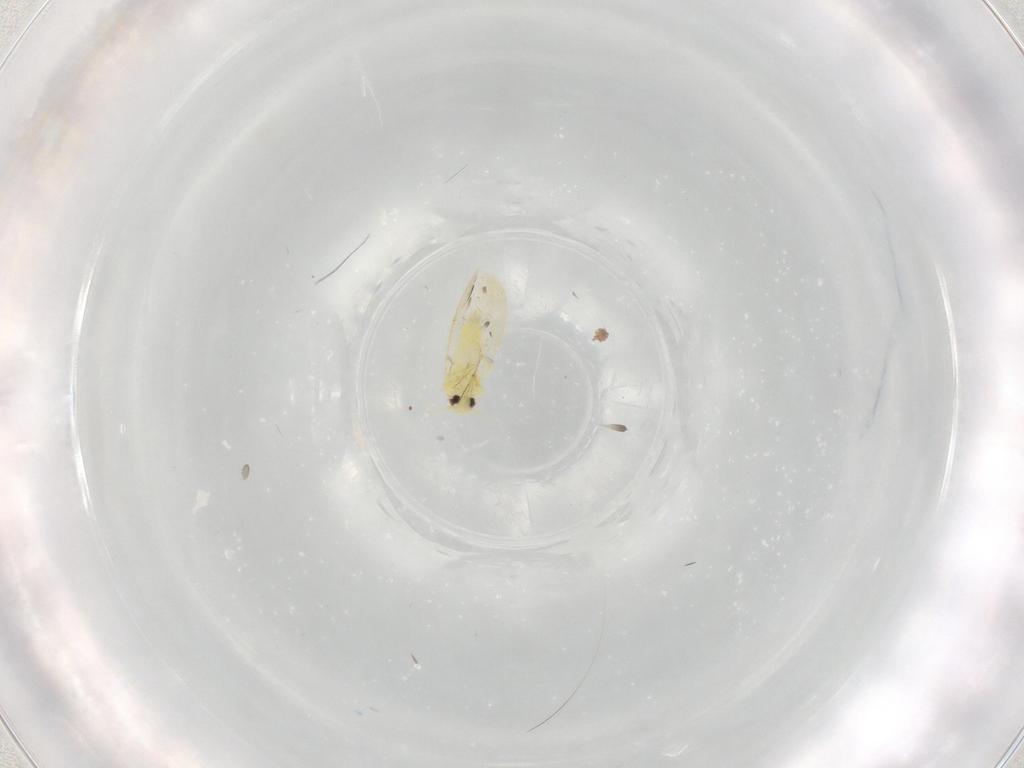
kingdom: Animalia
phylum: Arthropoda
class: Insecta
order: Hemiptera
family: Aleyrodidae
